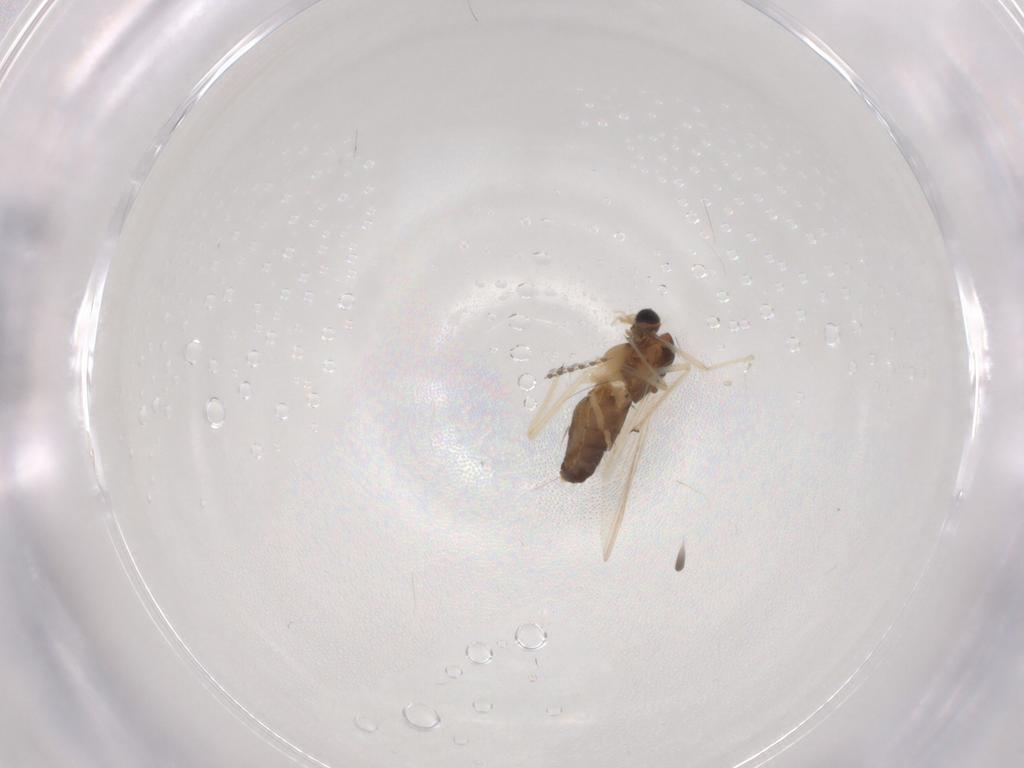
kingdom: Animalia
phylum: Arthropoda
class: Insecta
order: Diptera
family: Chironomidae
